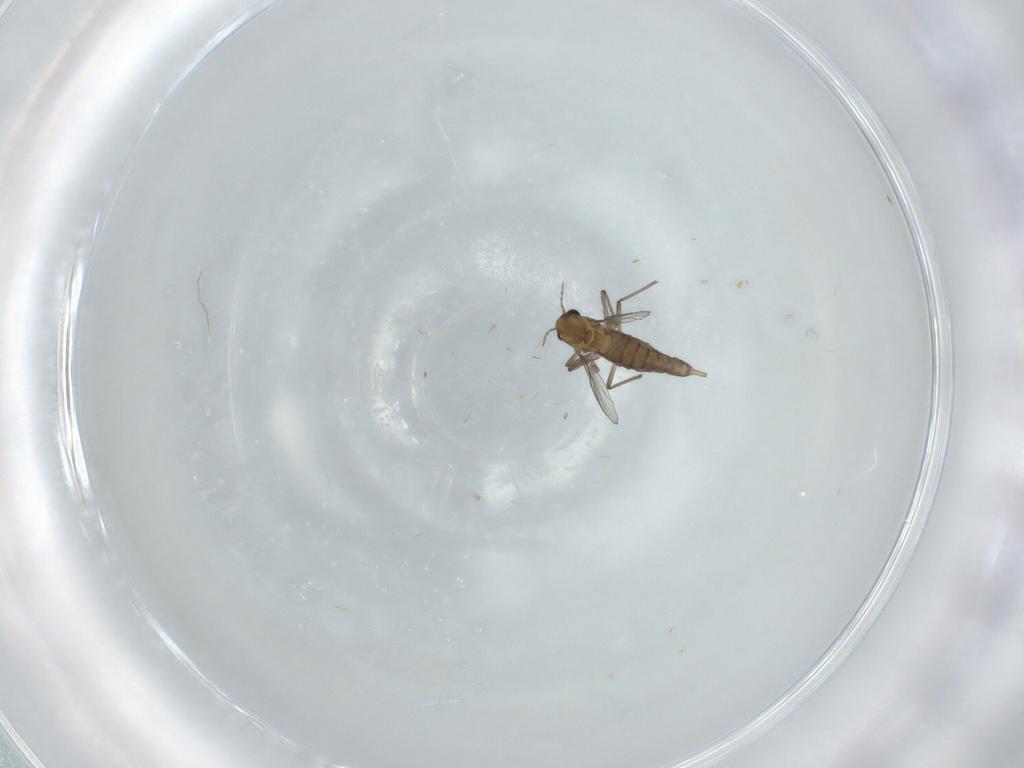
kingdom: Animalia
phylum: Arthropoda
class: Insecta
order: Diptera
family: Chironomidae
